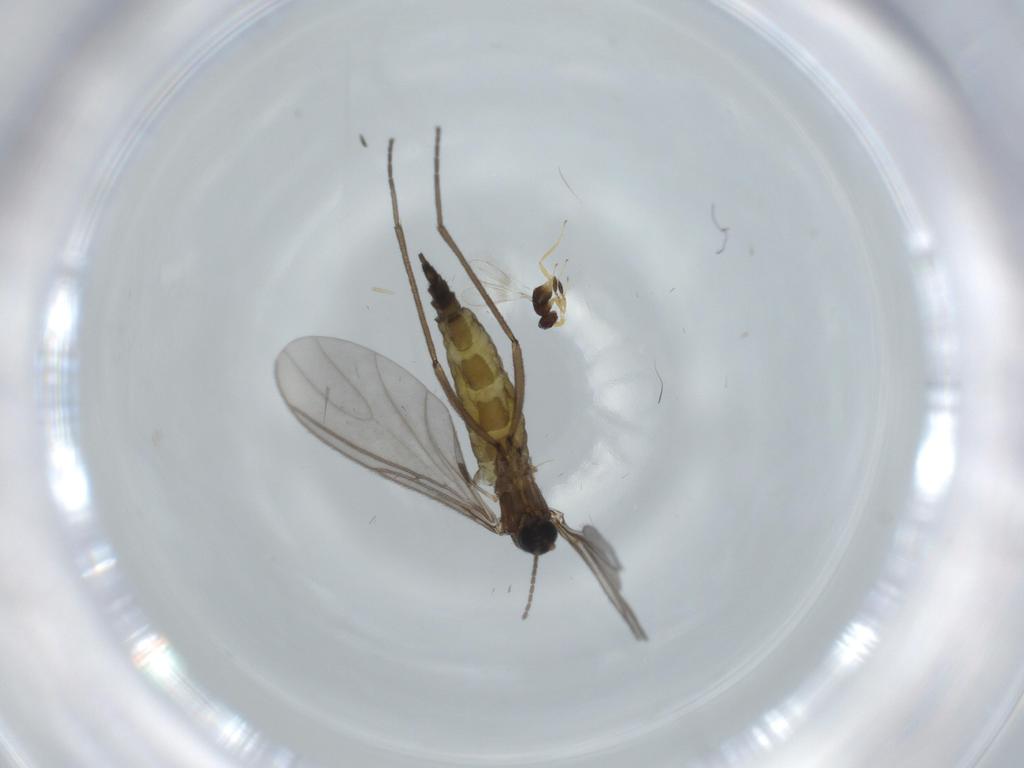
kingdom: Animalia
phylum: Arthropoda
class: Insecta
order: Diptera
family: Sciaridae
